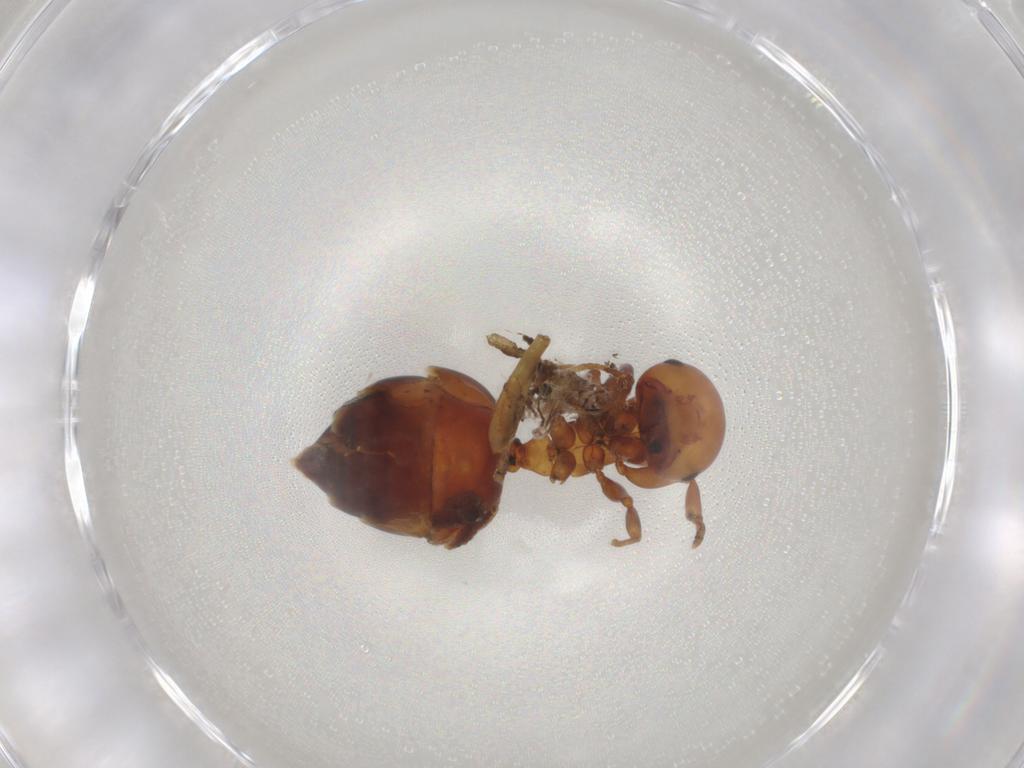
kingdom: Animalia
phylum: Arthropoda
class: Insecta
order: Hymenoptera
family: Formicidae
